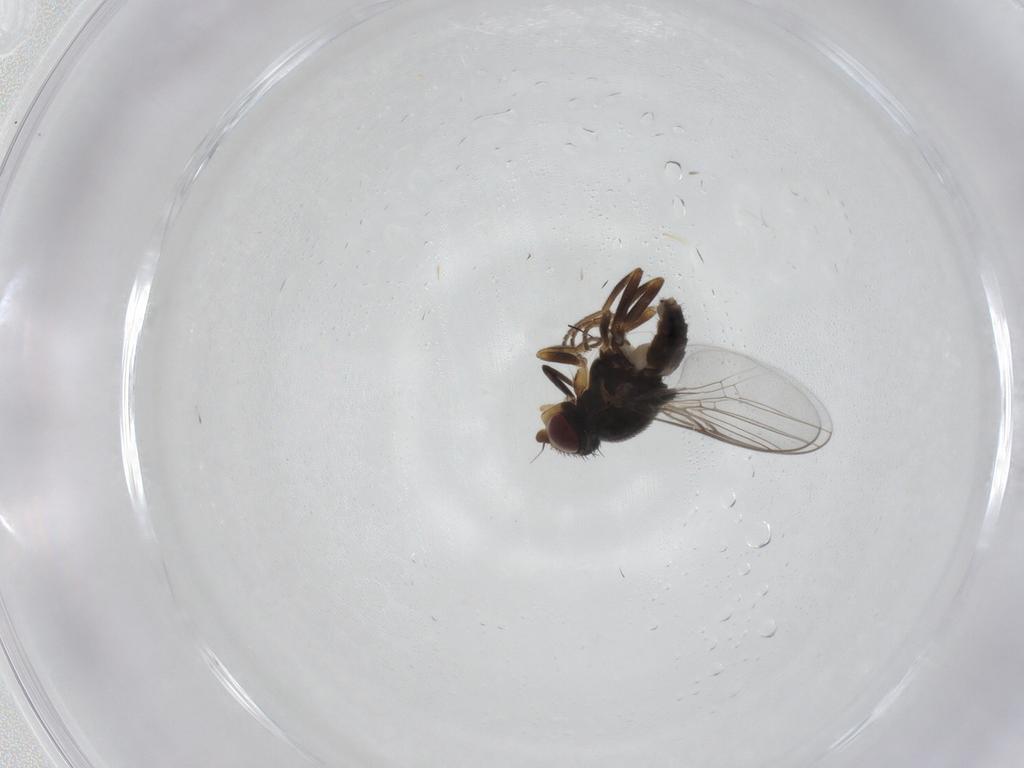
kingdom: Animalia
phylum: Arthropoda
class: Insecta
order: Diptera
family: Chloropidae
